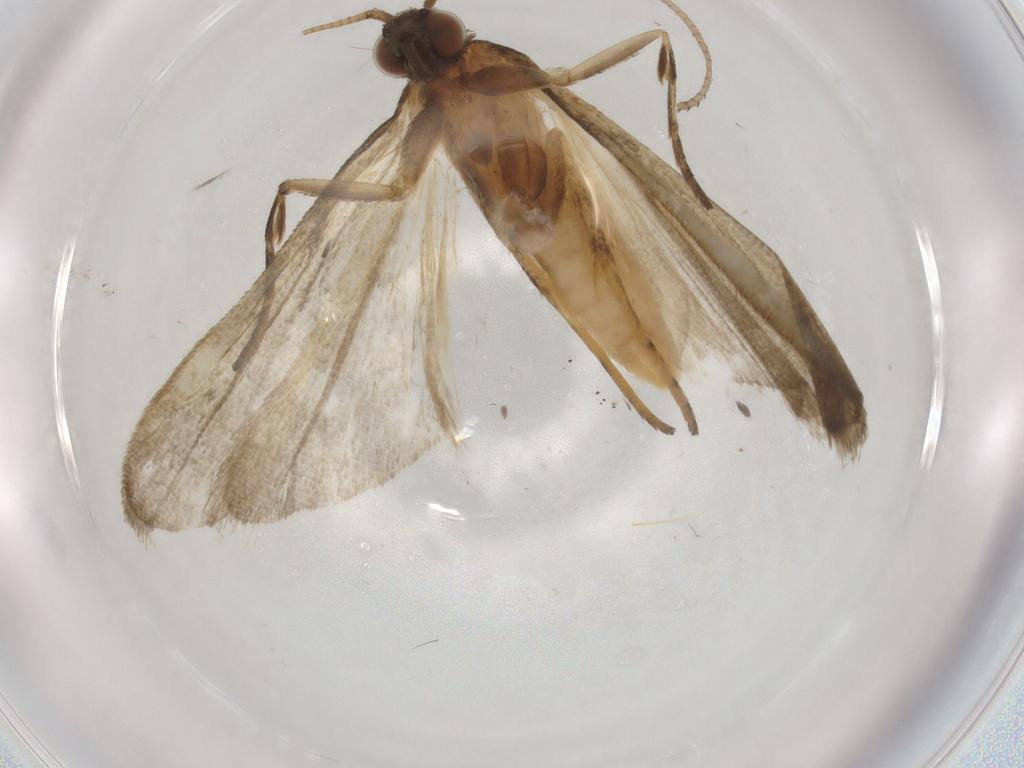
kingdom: Animalia
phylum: Arthropoda
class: Insecta
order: Lepidoptera
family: Noctuidae
